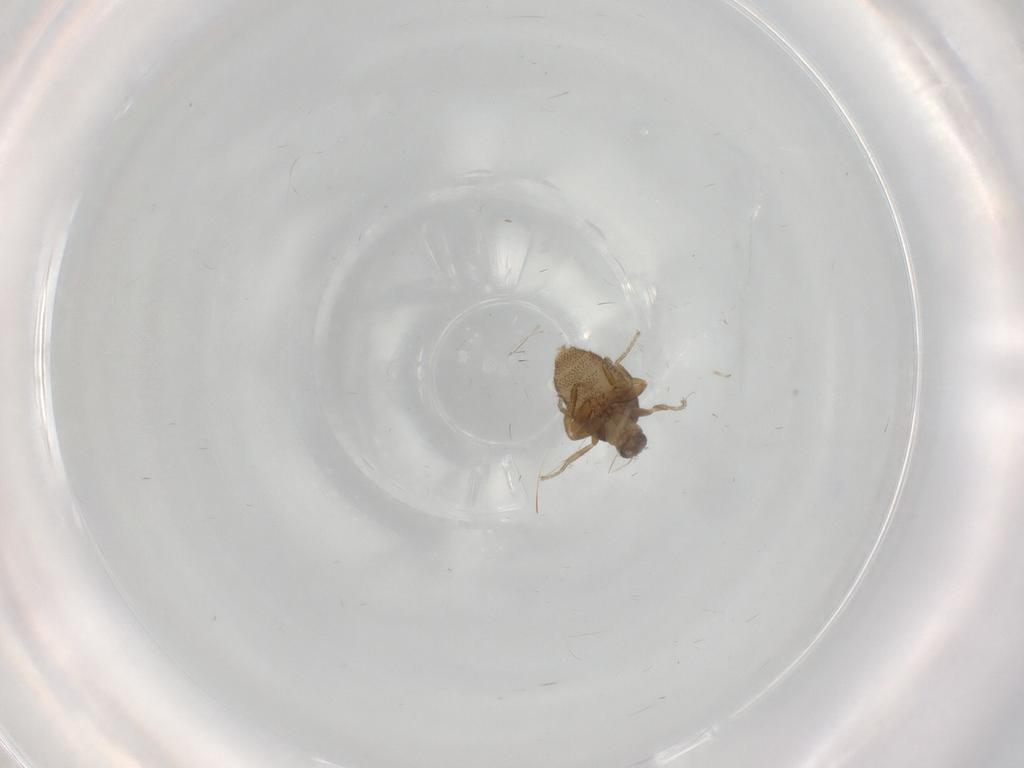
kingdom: Animalia
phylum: Arthropoda
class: Insecta
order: Diptera
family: Phoridae
